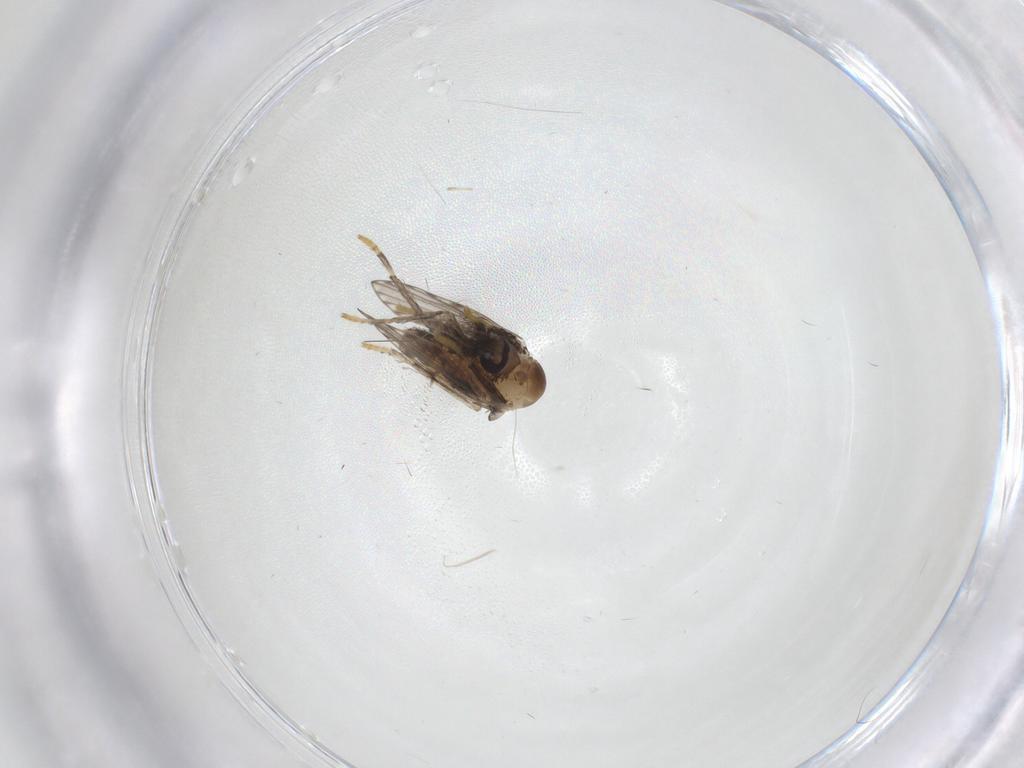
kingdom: Animalia
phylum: Arthropoda
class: Insecta
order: Diptera
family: Psychodidae
